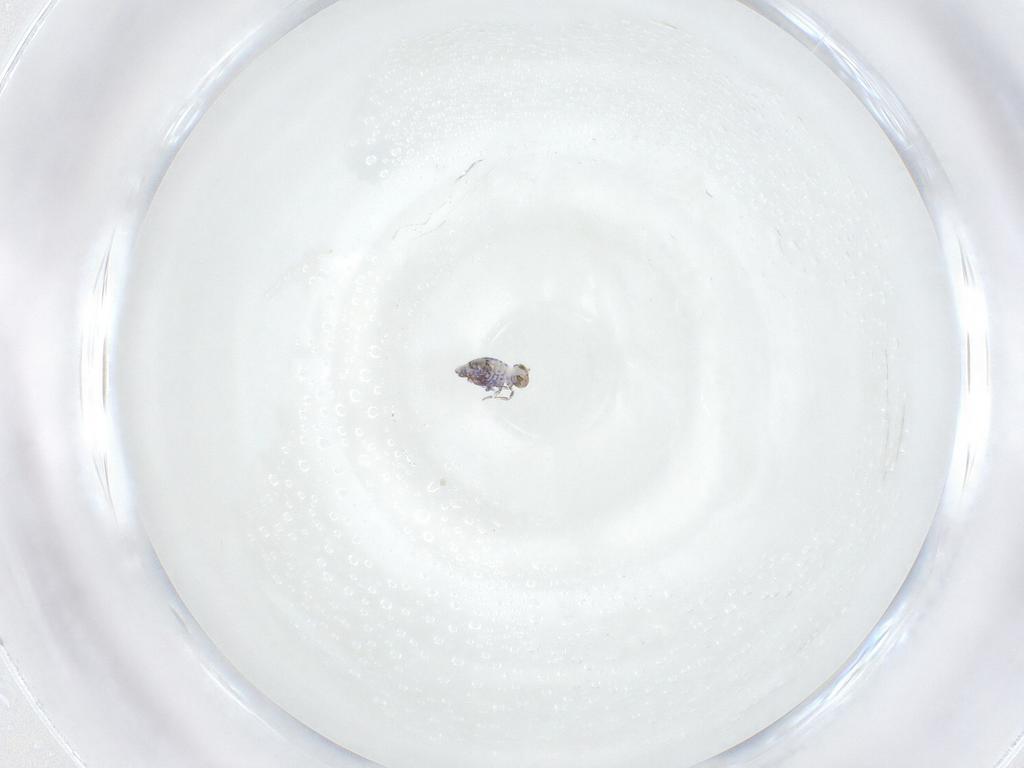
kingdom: Animalia
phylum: Arthropoda
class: Collembola
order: Symphypleona
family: Katiannidae
